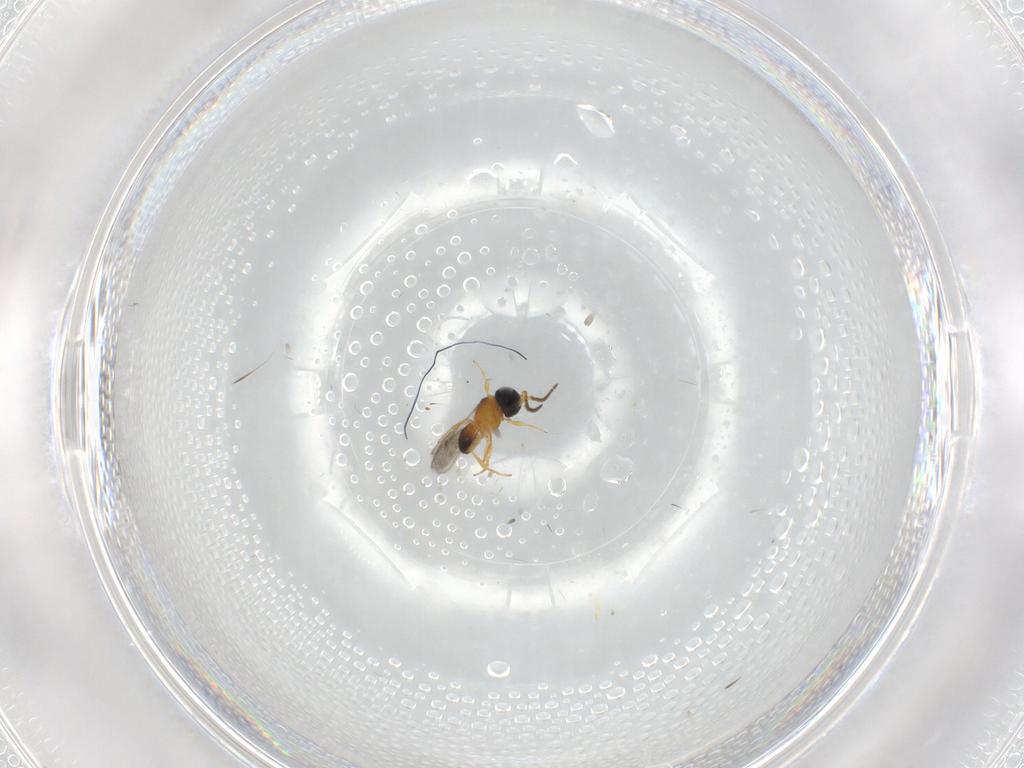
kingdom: Animalia
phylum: Arthropoda
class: Insecta
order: Hymenoptera
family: Scelionidae
